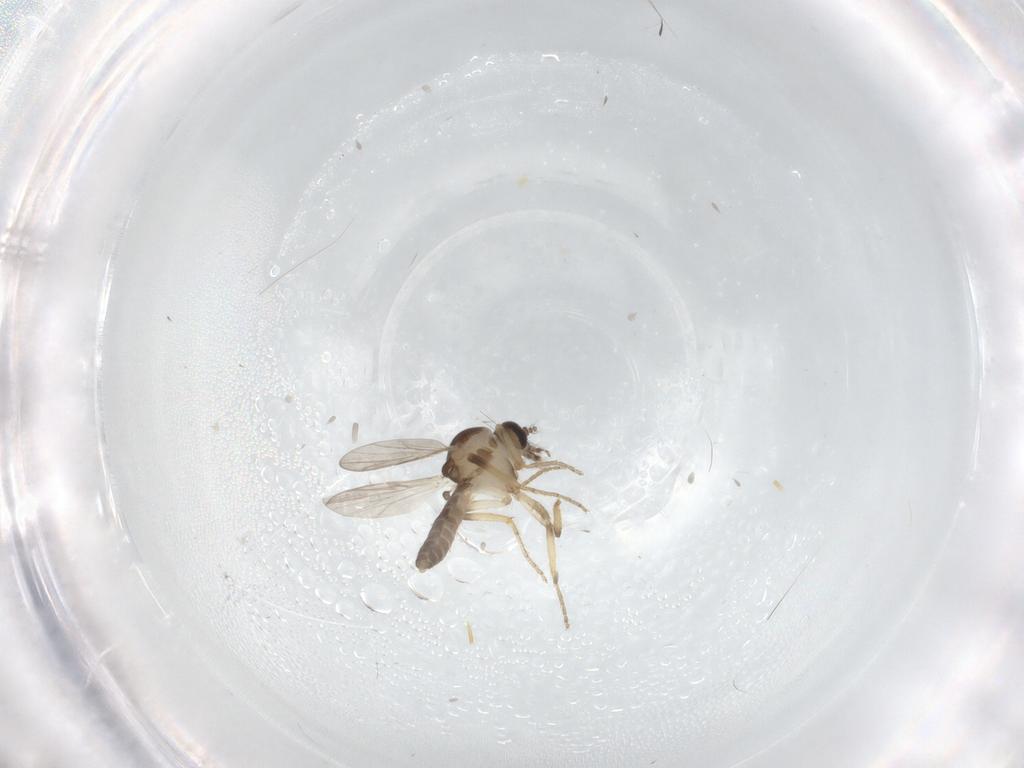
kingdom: Animalia
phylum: Arthropoda
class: Insecta
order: Diptera
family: Ceratopogonidae
